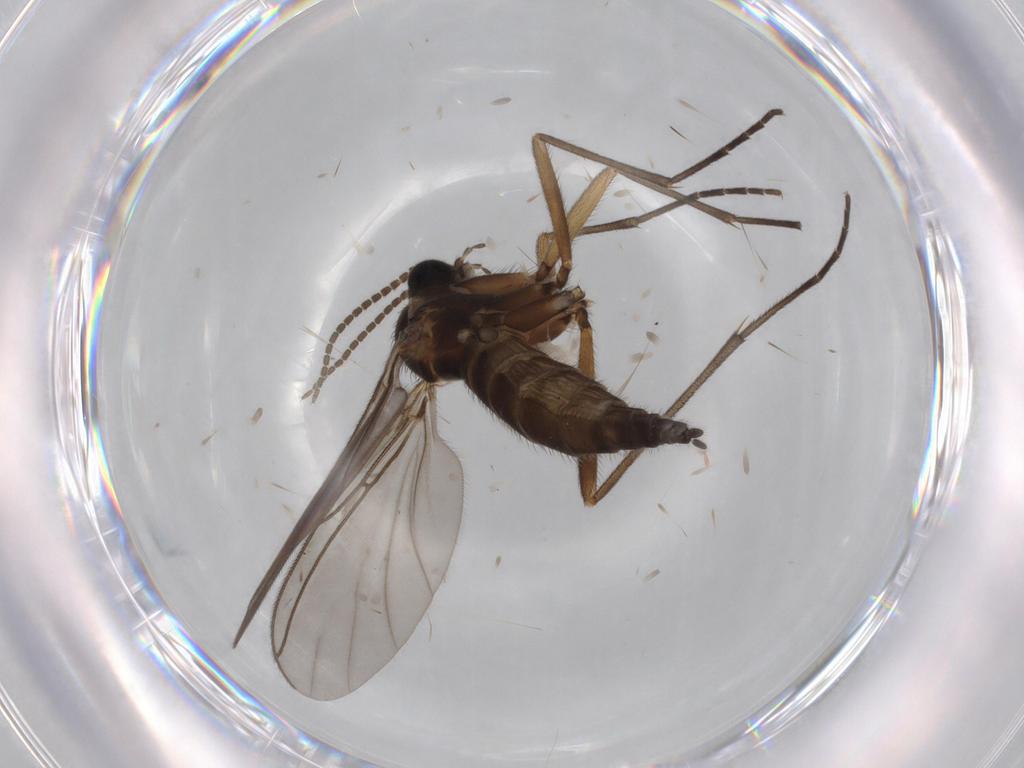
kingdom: Animalia
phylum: Arthropoda
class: Insecta
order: Diptera
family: Sciaridae
